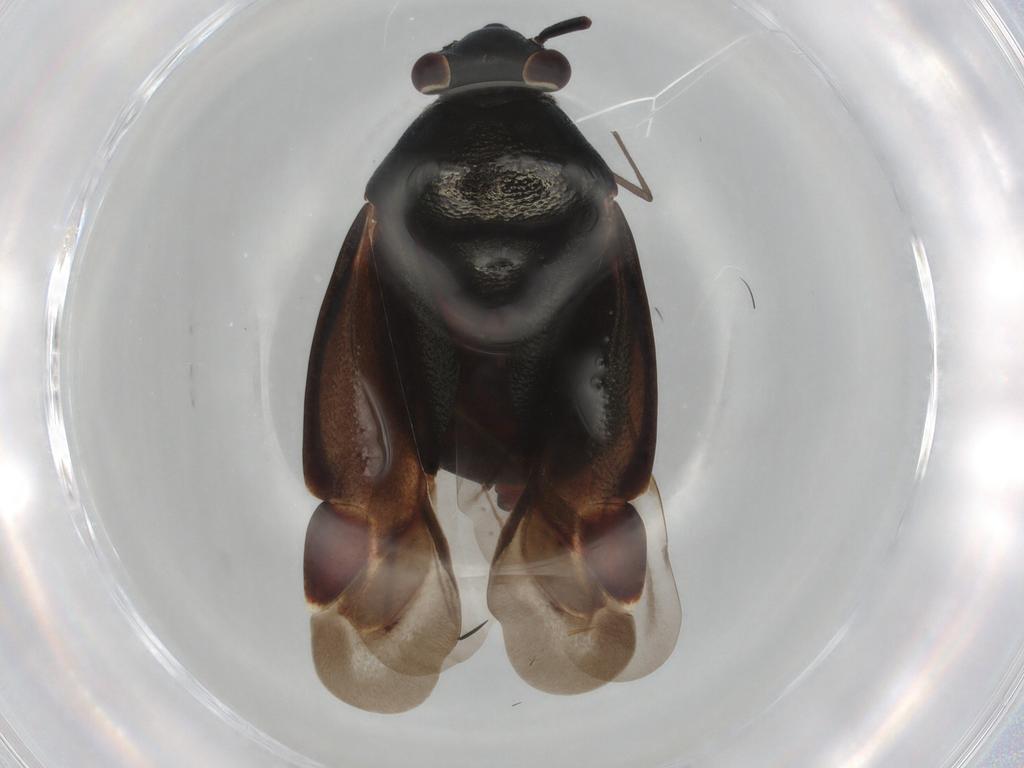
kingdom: Animalia
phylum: Arthropoda
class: Insecta
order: Hemiptera
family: Miridae
